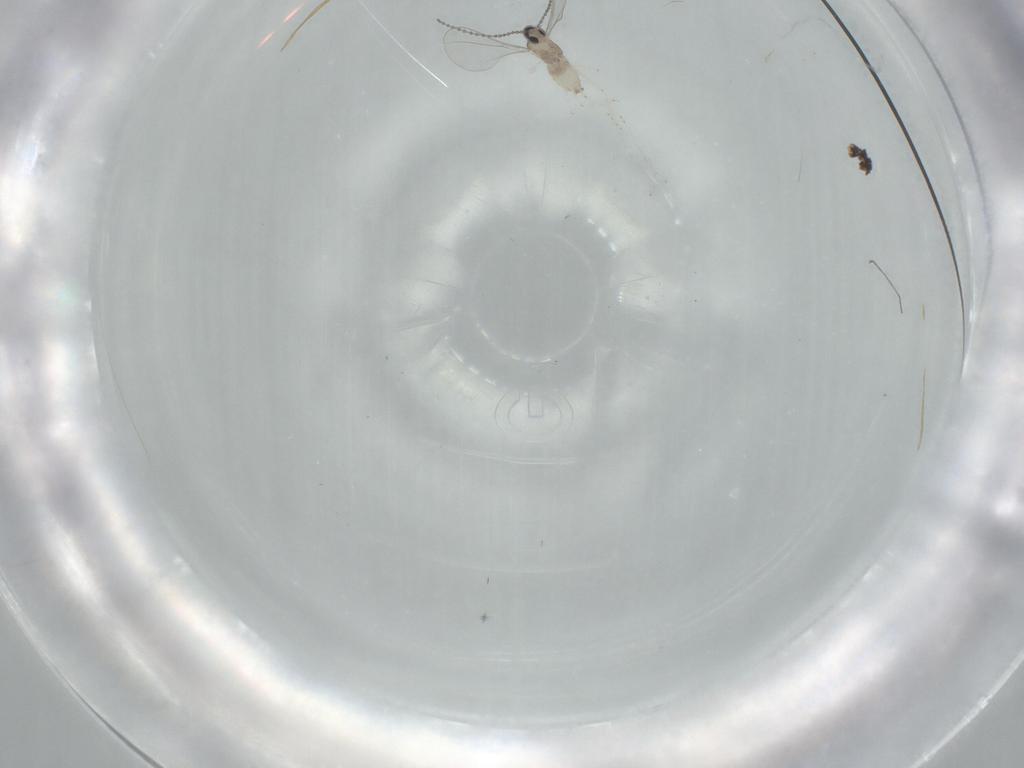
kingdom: Animalia
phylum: Arthropoda
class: Insecta
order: Diptera
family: Cecidomyiidae
